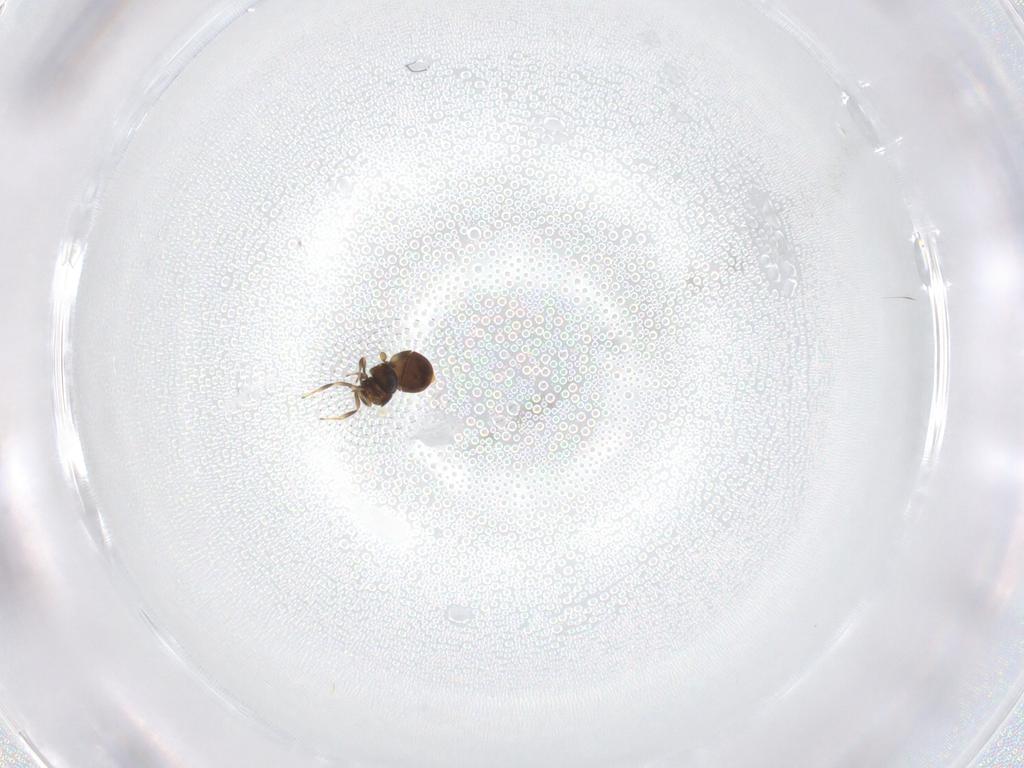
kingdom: Animalia
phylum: Arthropoda
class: Insecta
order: Hymenoptera
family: Scelionidae
